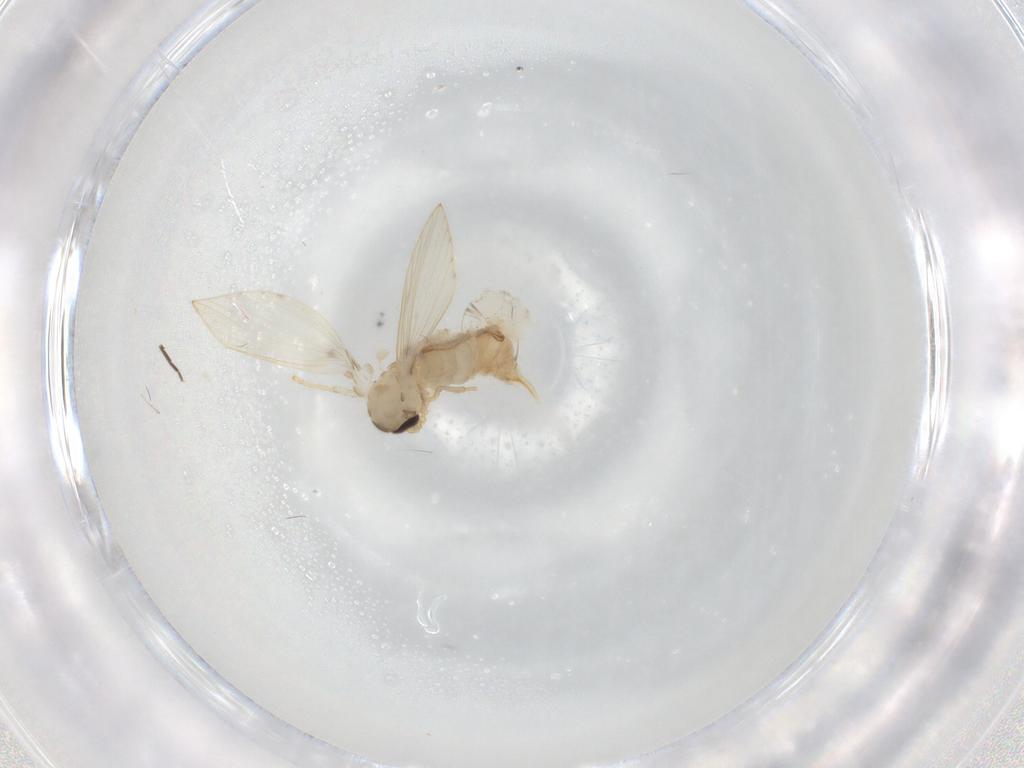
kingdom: Animalia
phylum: Arthropoda
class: Insecta
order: Diptera
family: Psychodidae
